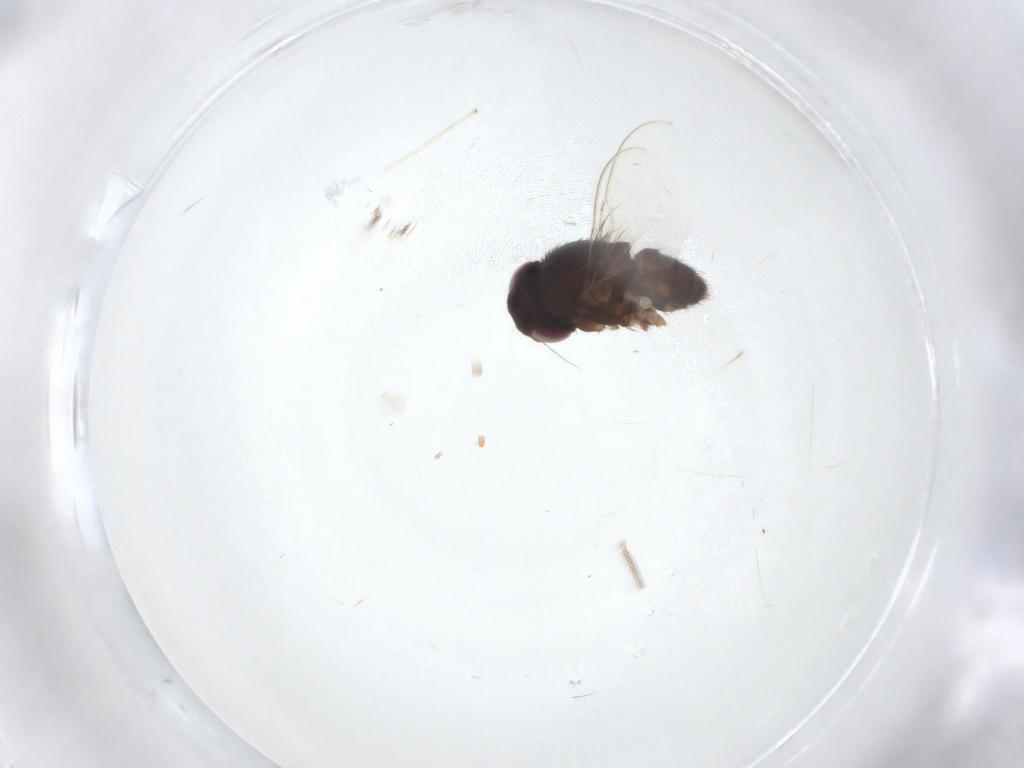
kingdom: Animalia
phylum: Arthropoda
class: Insecta
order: Diptera
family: Milichiidae
